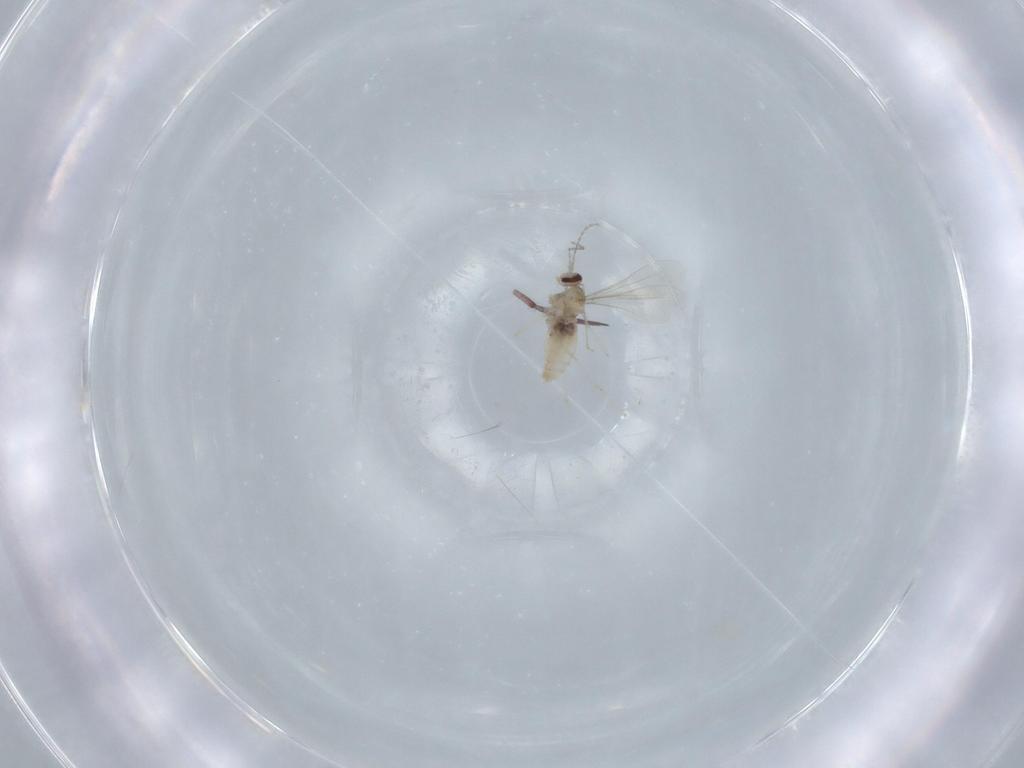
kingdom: Animalia
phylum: Arthropoda
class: Insecta
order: Diptera
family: Cecidomyiidae
